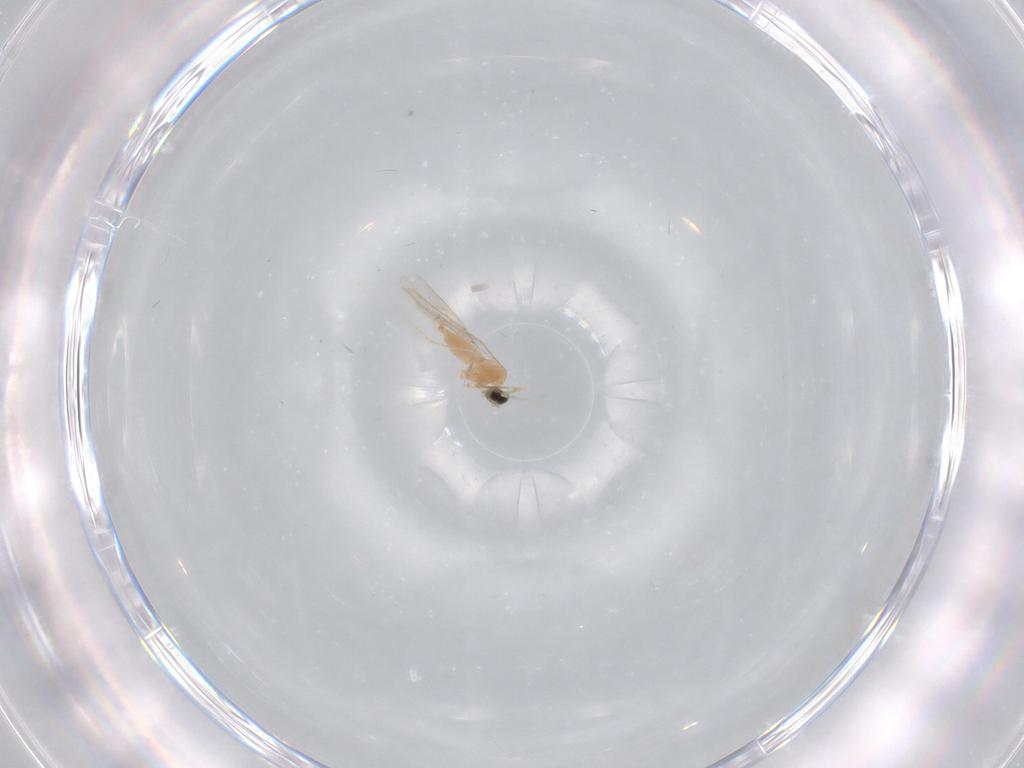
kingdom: Animalia
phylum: Arthropoda
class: Insecta
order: Diptera
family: Cecidomyiidae
